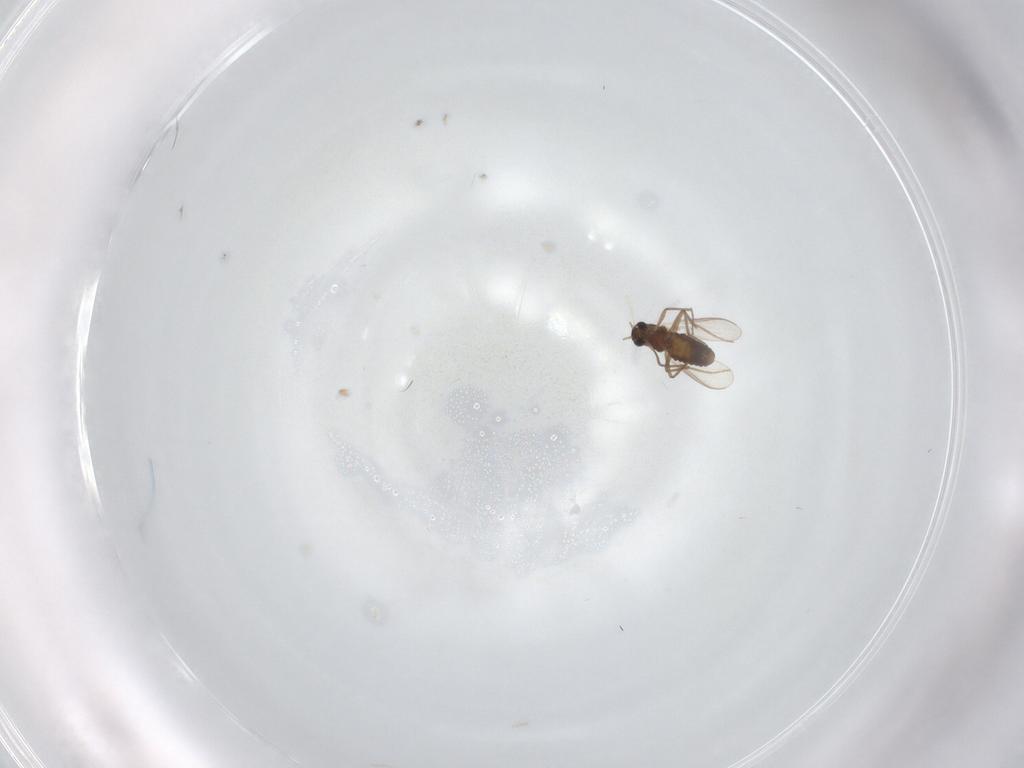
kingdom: Animalia
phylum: Arthropoda
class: Insecta
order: Diptera
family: Chironomidae
